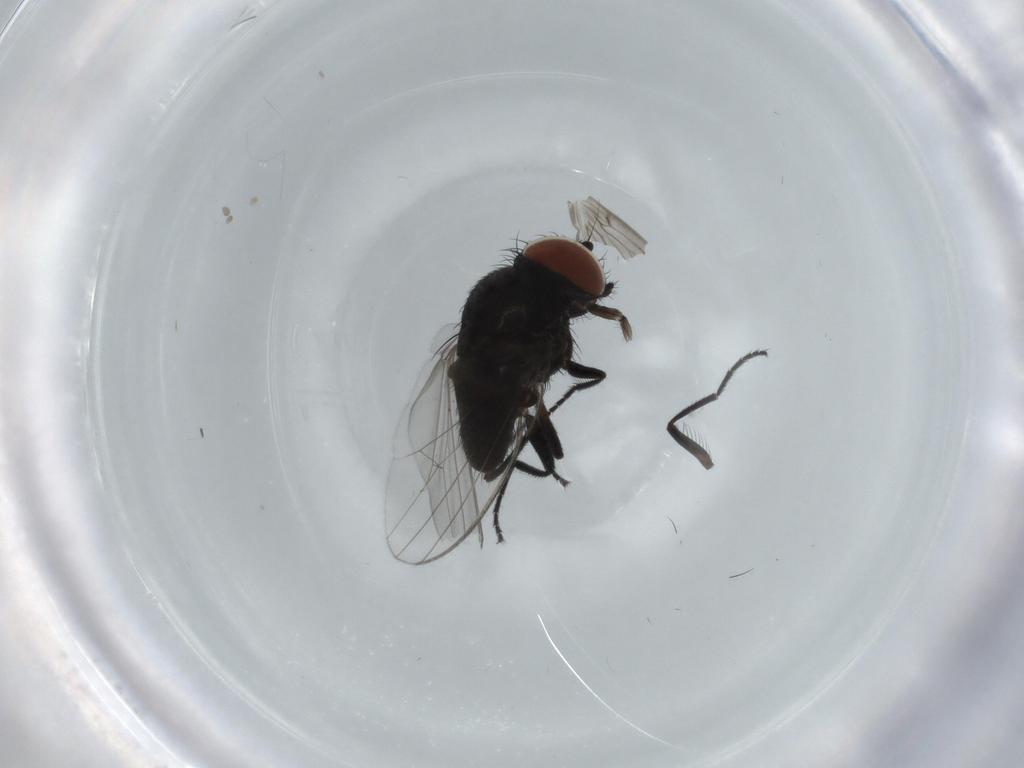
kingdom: Animalia
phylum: Arthropoda
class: Insecta
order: Diptera
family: Milichiidae
